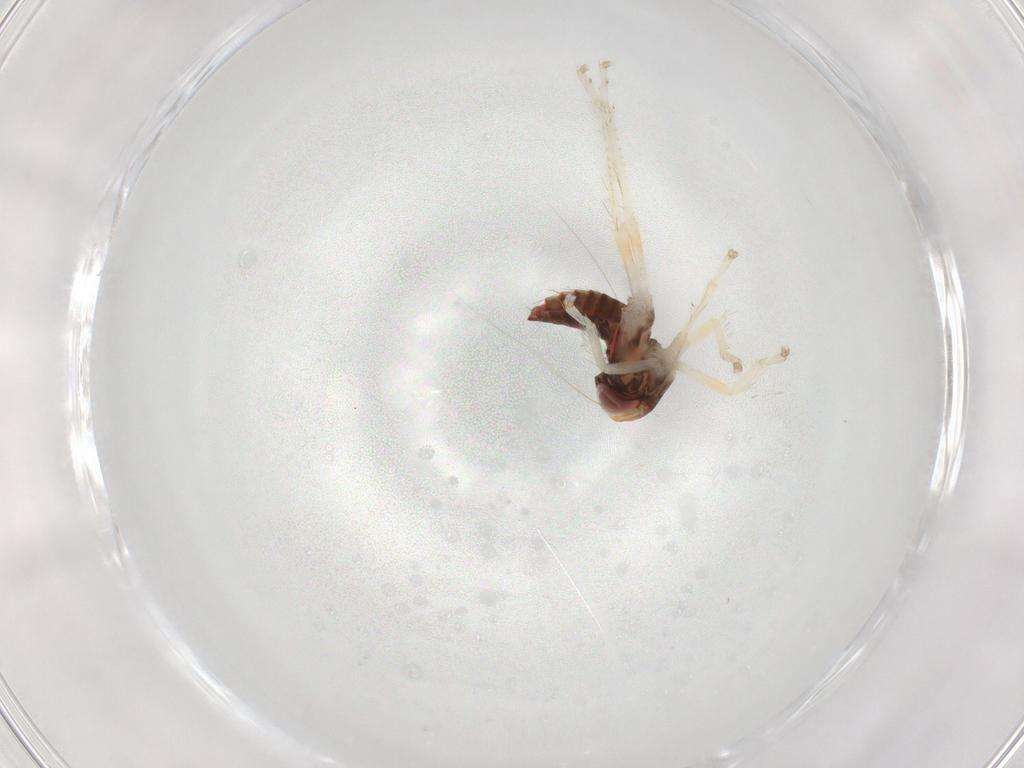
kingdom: Animalia
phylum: Arthropoda
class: Insecta
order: Hemiptera
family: Cicadellidae
